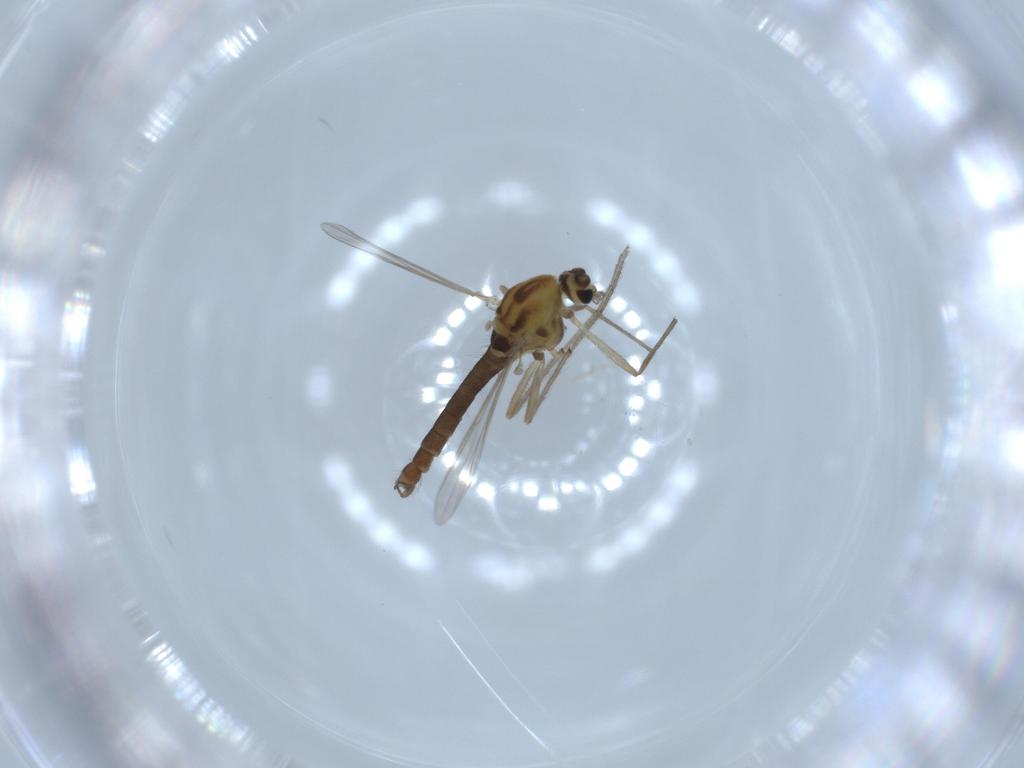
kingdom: Animalia
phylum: Arthropoda
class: Insecta
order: Diptera
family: Chironomidae
